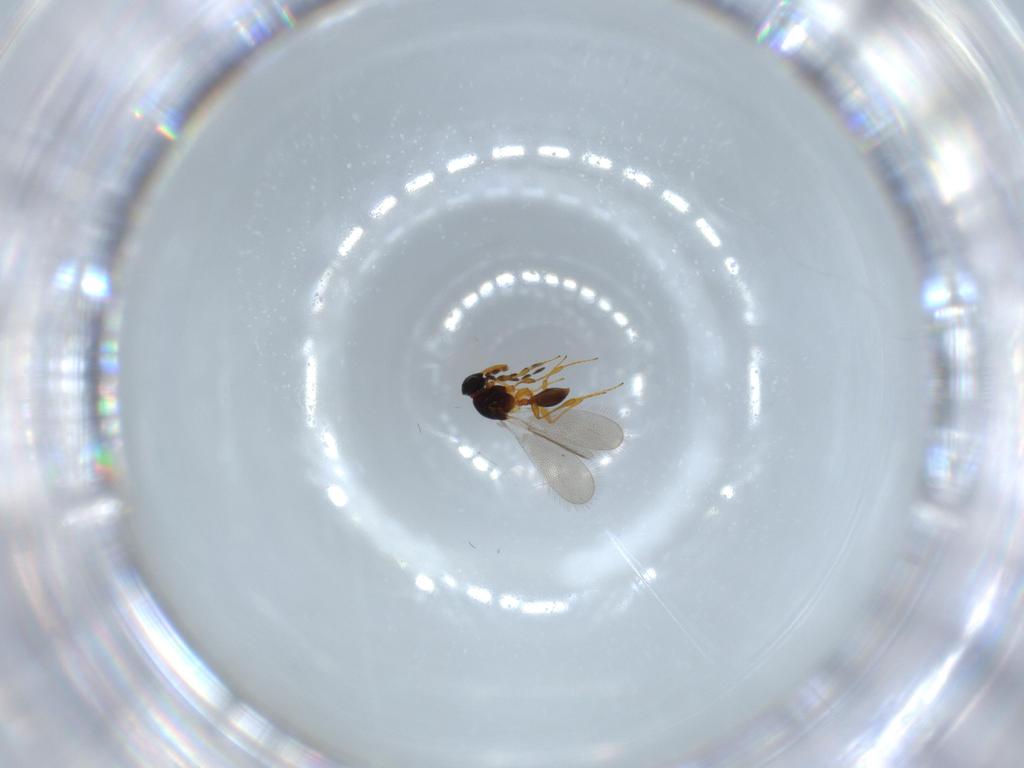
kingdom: Animalia
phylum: Arthropoda
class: Insecta
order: Hymenoptera
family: Platygastridae
